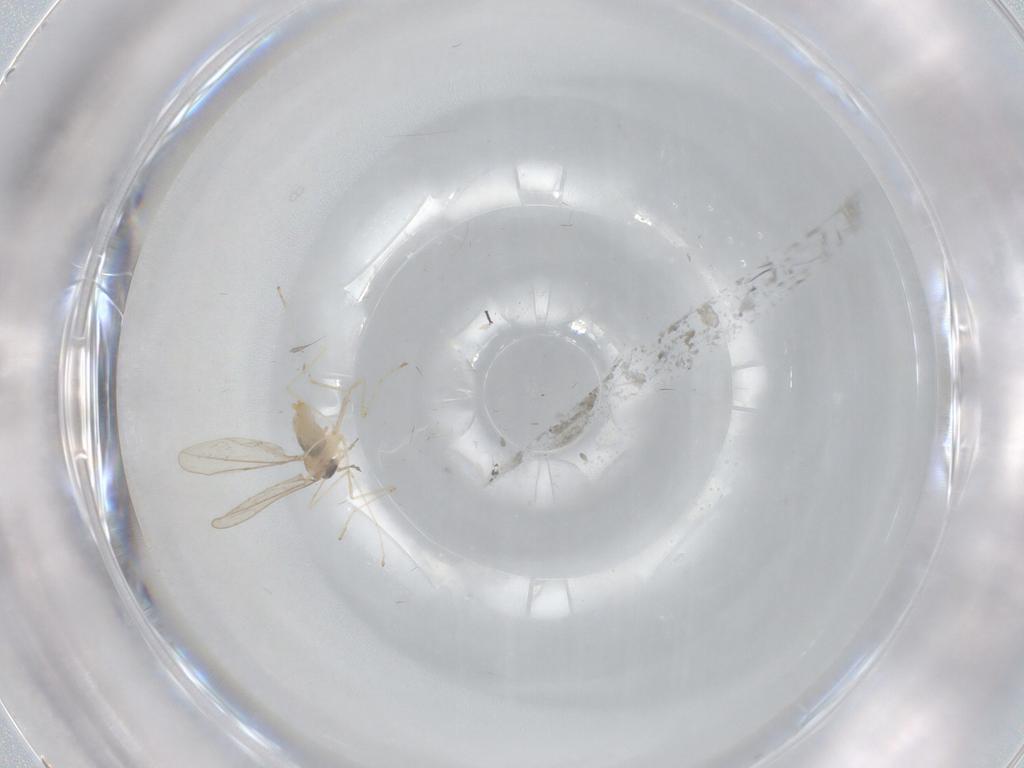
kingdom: Animalia
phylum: Arthropoda
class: Insecta
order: Diptera
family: Cecidomyiidae
